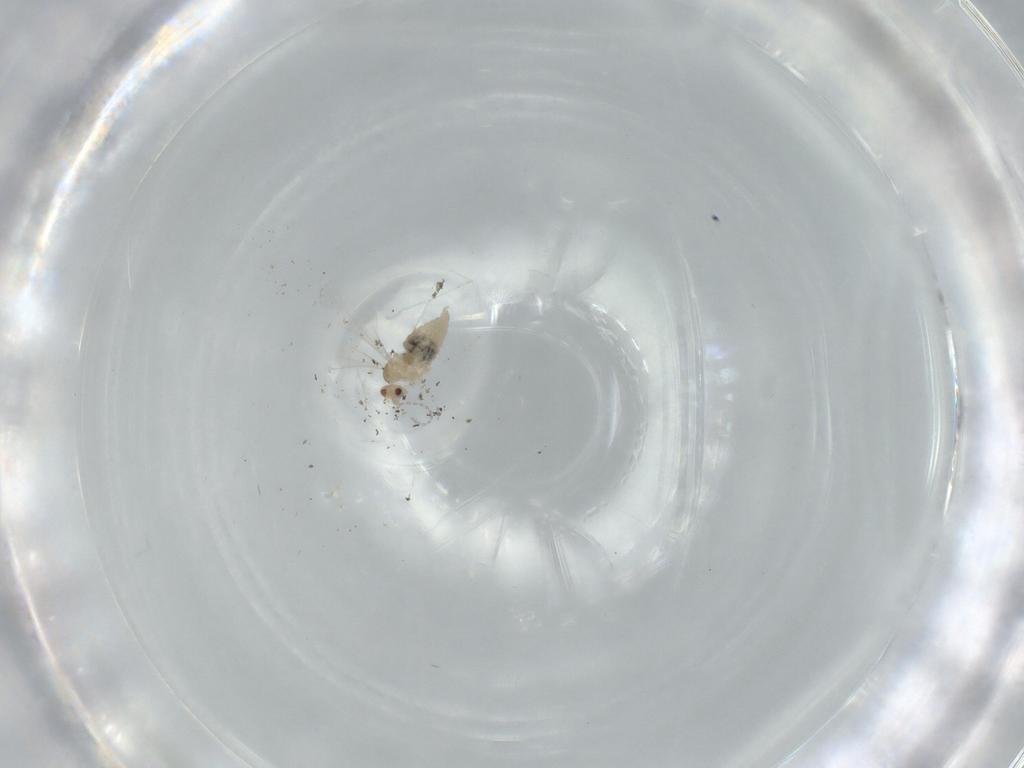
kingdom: Animalia
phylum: Arthropoda
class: Insecta
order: Diptera
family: Cecidomyiidae
